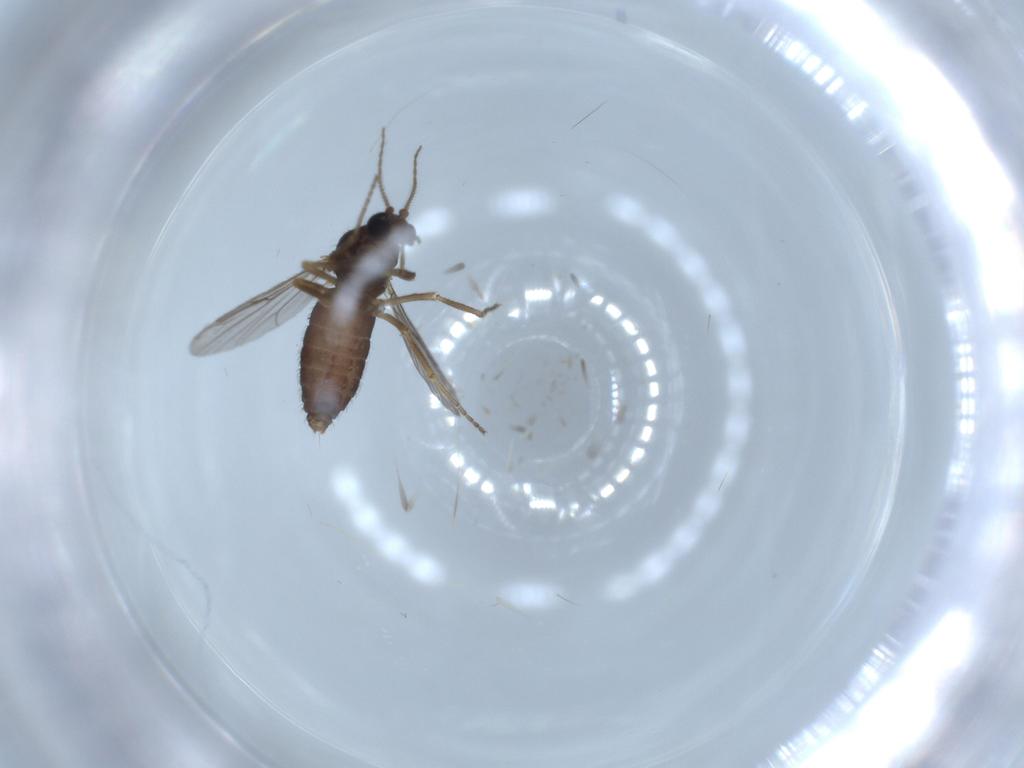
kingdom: Animalia
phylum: Arthropoda
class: Insecta
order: Diptera
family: Ceratopogonidae
